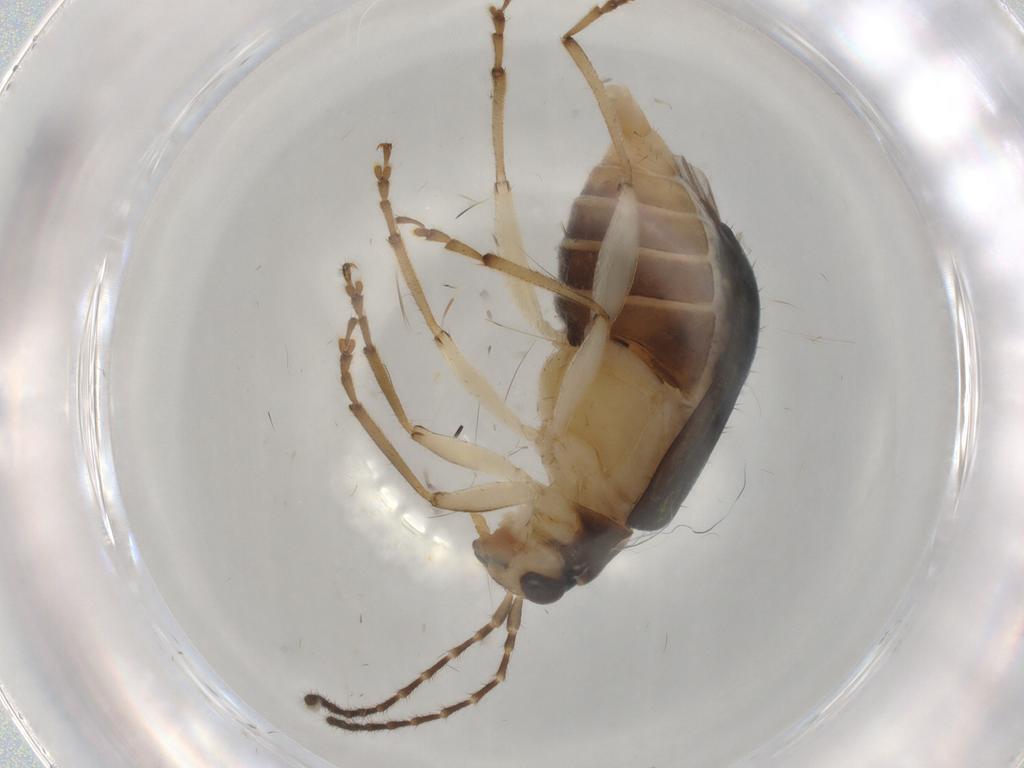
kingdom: Animalia
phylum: Arthropoda
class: Insecta
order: Coleoptera
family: Chrysomelidae
